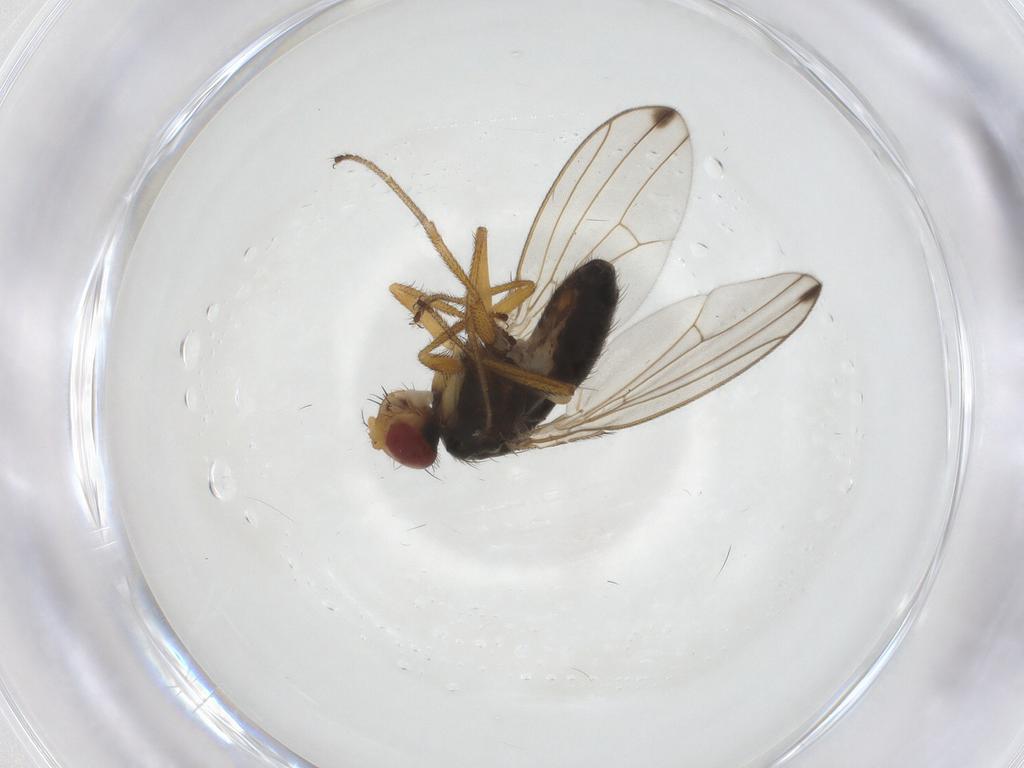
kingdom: Animalia
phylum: Arthropoda
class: Insecta
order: Diptera
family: Drosophilidae
